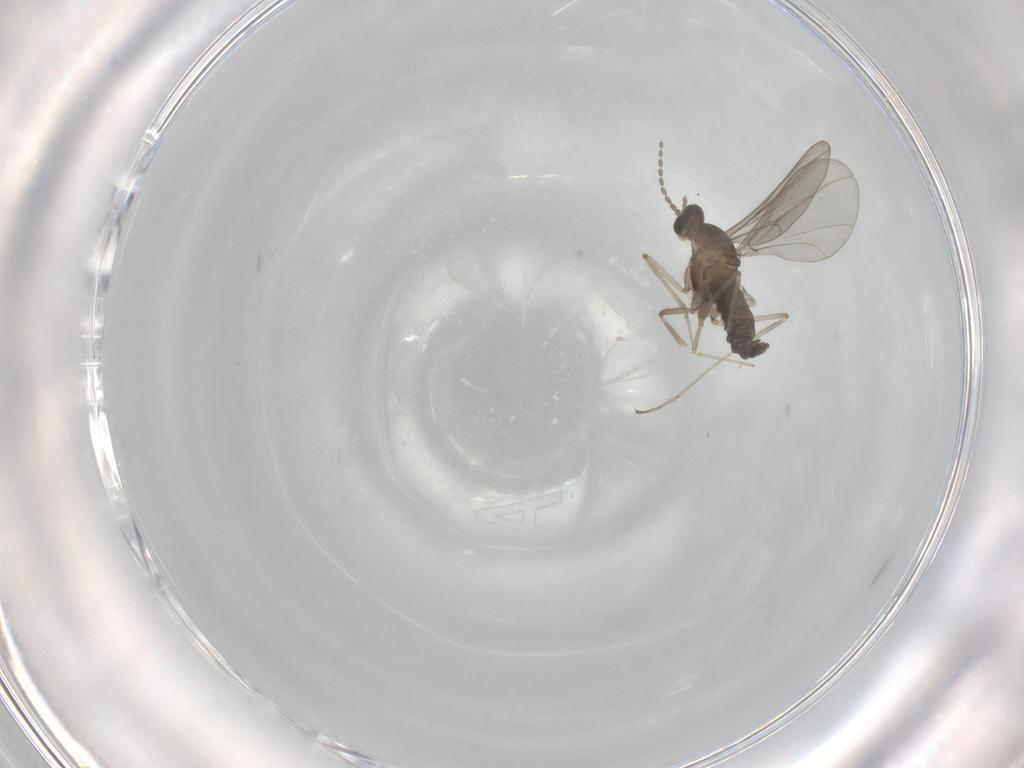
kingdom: Animalia
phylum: Arthropoda
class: Insecta
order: Diptera
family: Cecidomyiidae
